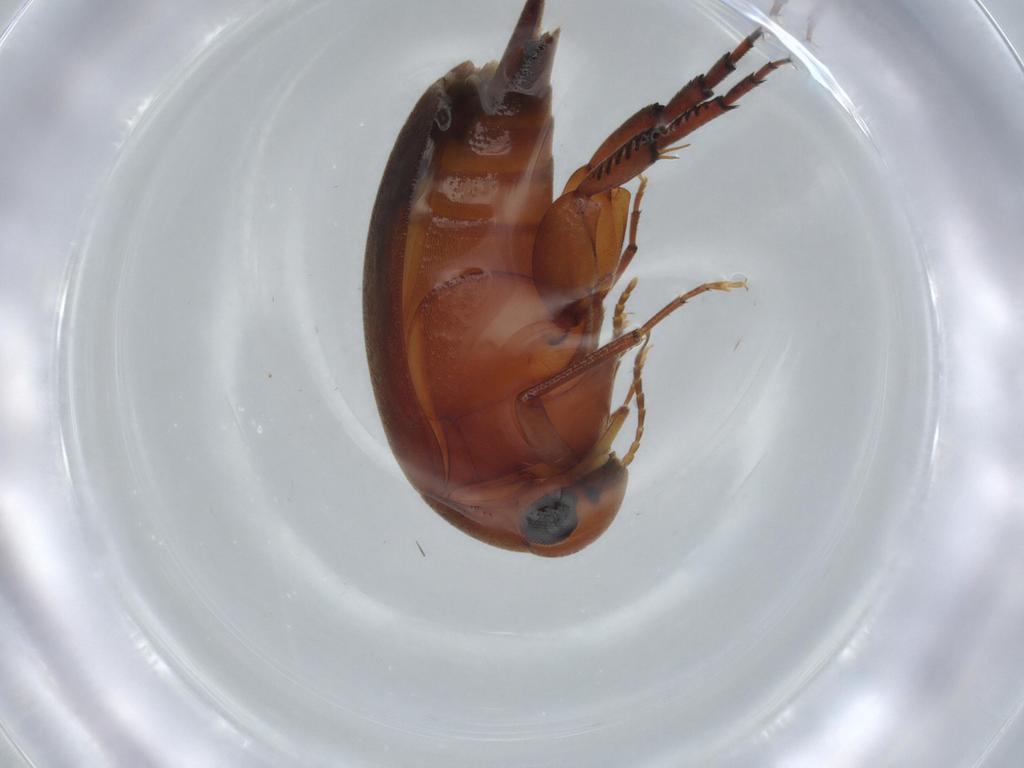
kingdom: Animalia
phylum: Arthropoda
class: Insecta
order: Coleoptera
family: Mordellidae
